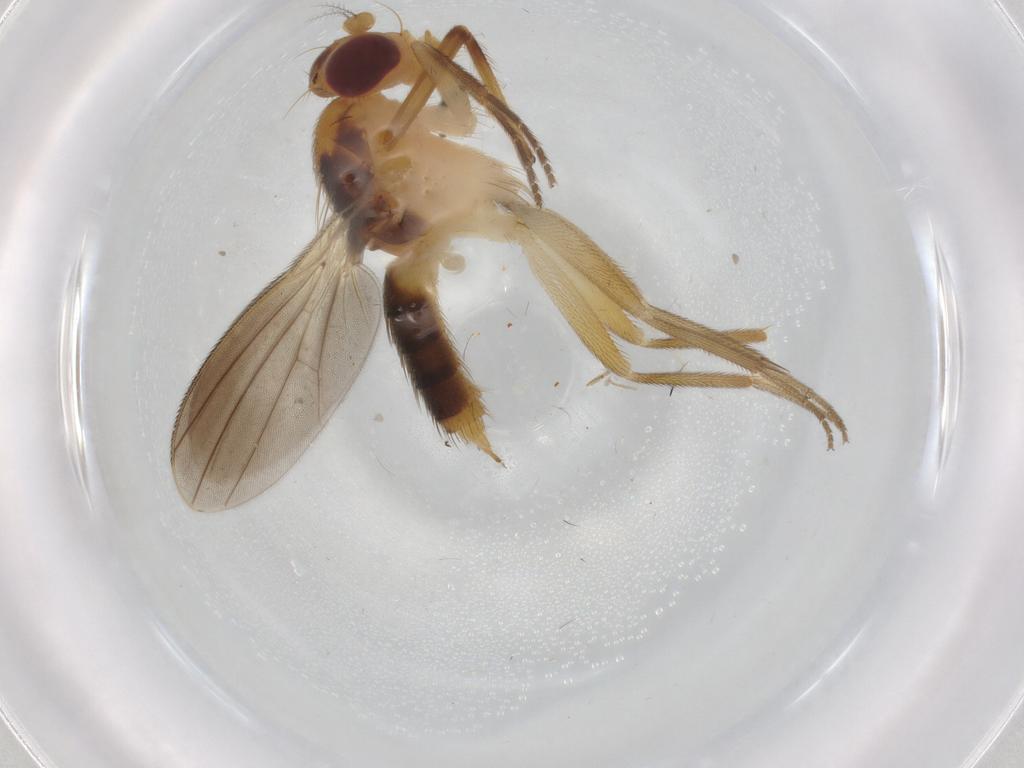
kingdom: Animalia
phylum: Arthropoda
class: Insecta
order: Diptera
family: Agromyzidae
